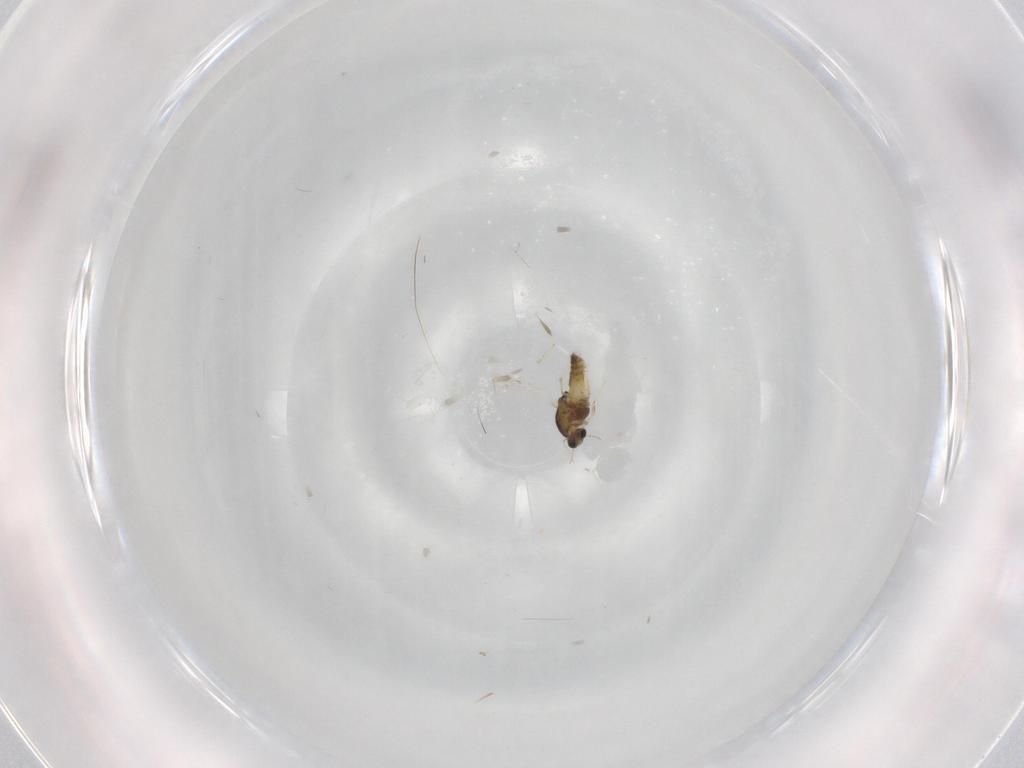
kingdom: Animalia
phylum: Arthropoda
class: Insecta
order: Diptera
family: Chironomidae
